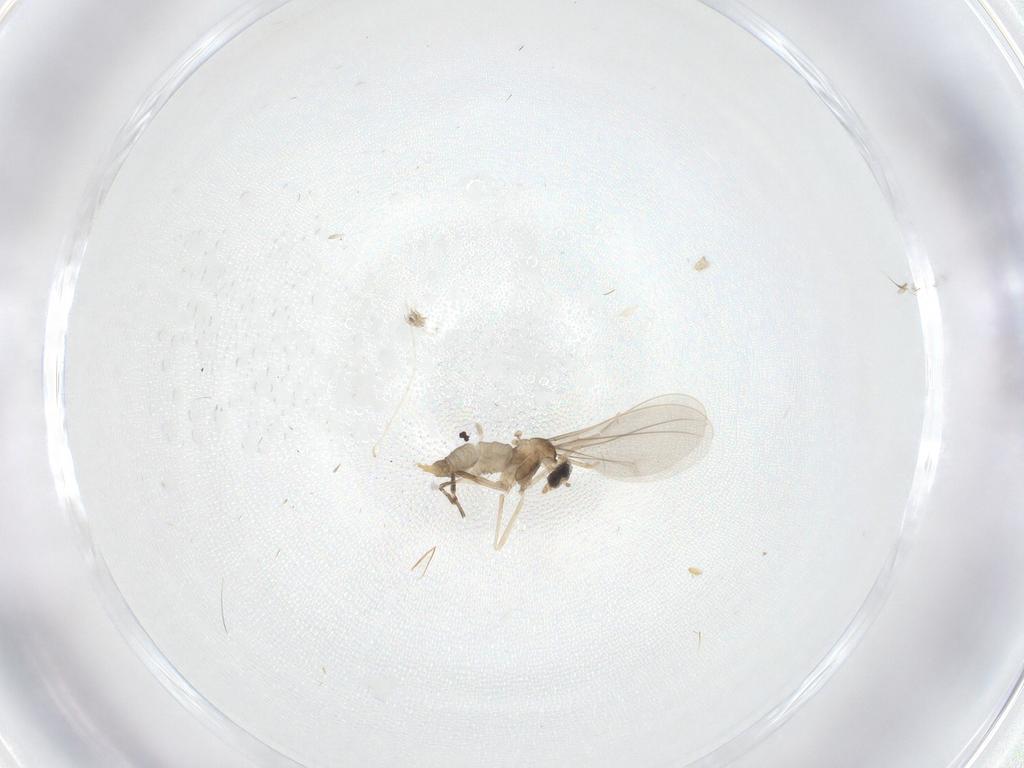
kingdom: Animalia
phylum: Arthropoda
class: Insecta
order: Diptera
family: Cecidomyiidae
